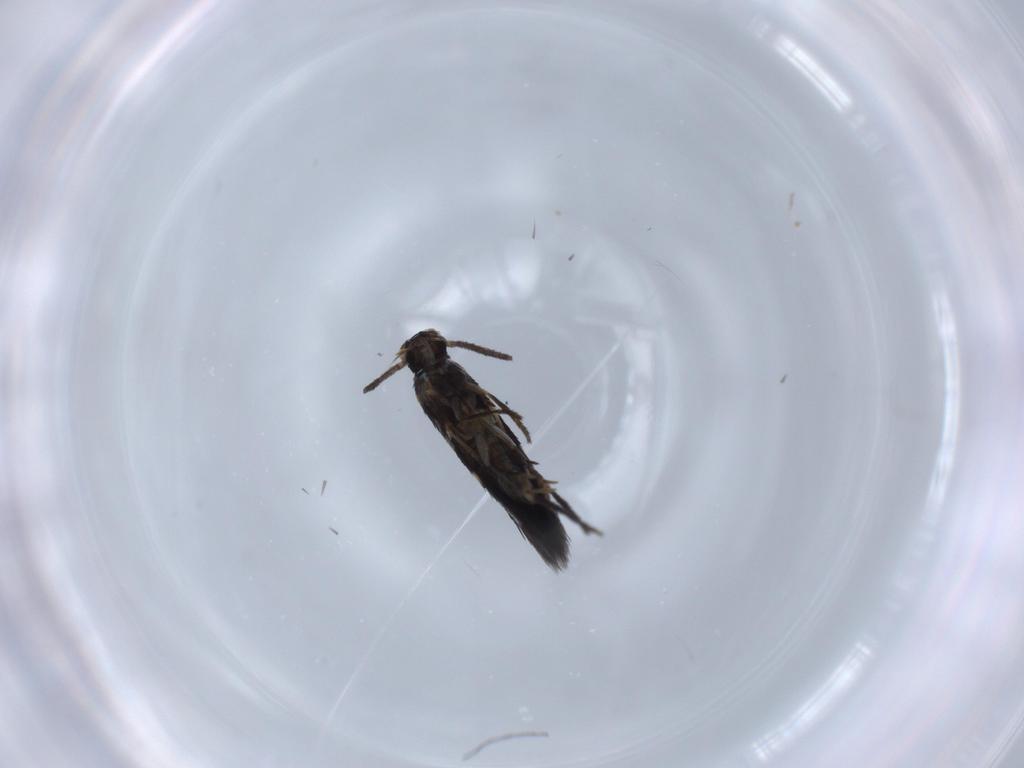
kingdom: Animalia
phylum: Arthropoda
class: Insecta
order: Lepidoptera
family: Heliozelidae
